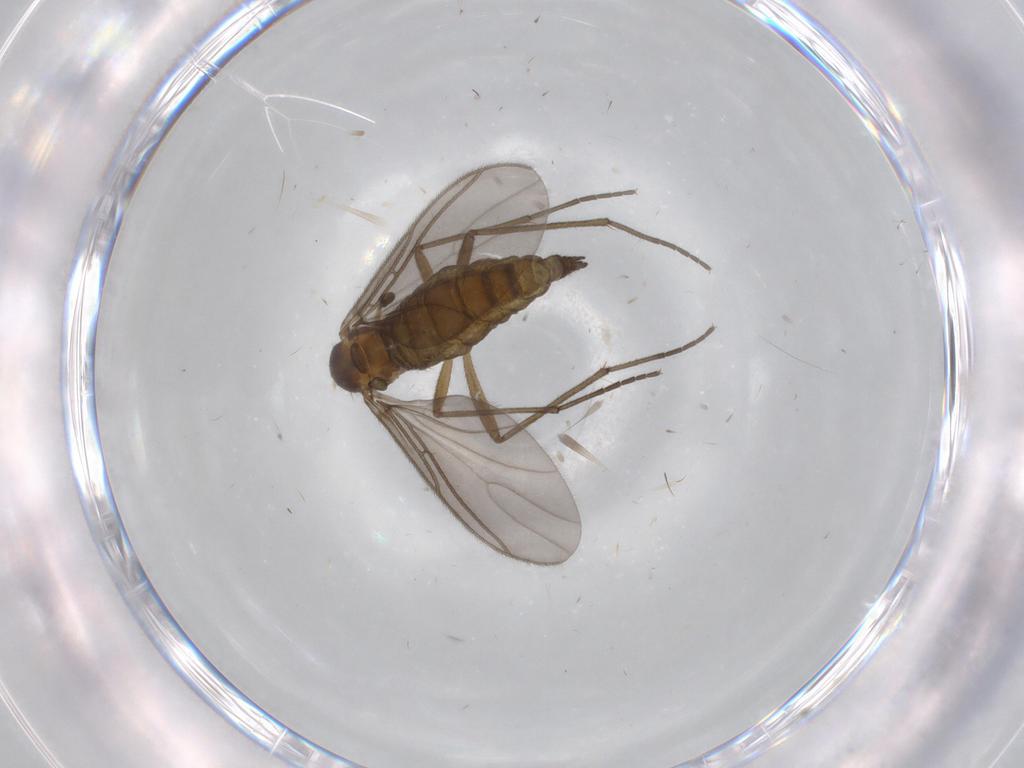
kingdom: Animalia
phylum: Arthropoda
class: Insecta
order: Diptera
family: Sciaridae
